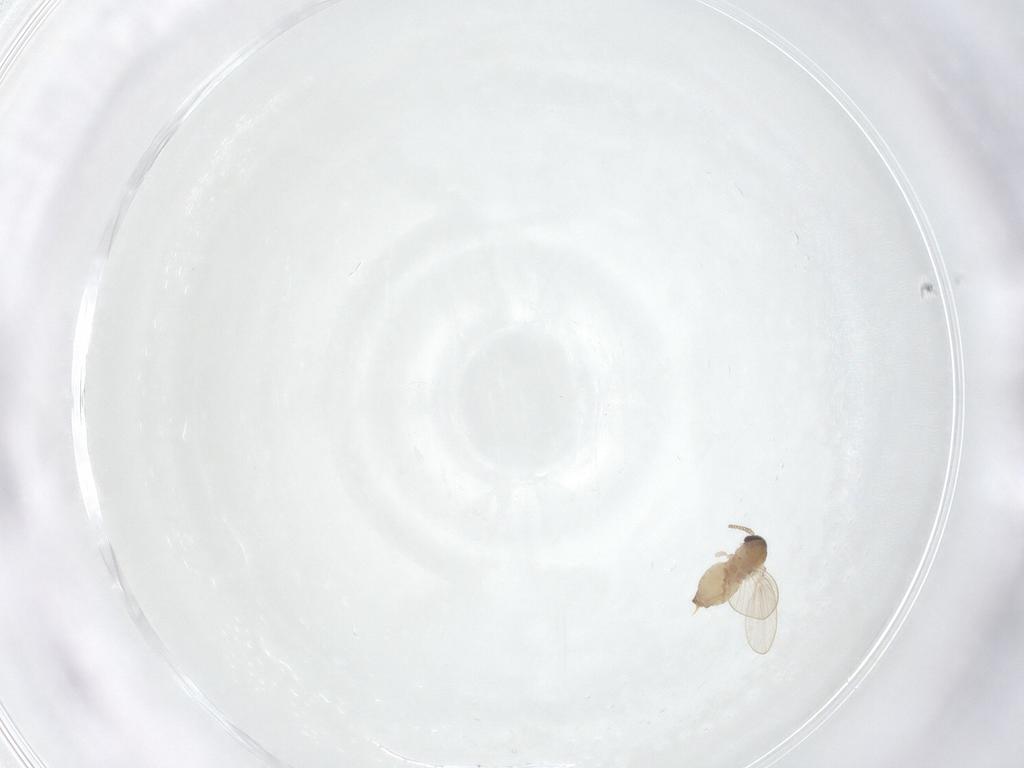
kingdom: Animalia
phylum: Arthropoda
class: Insecta
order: Diptera
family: Psychodidae
